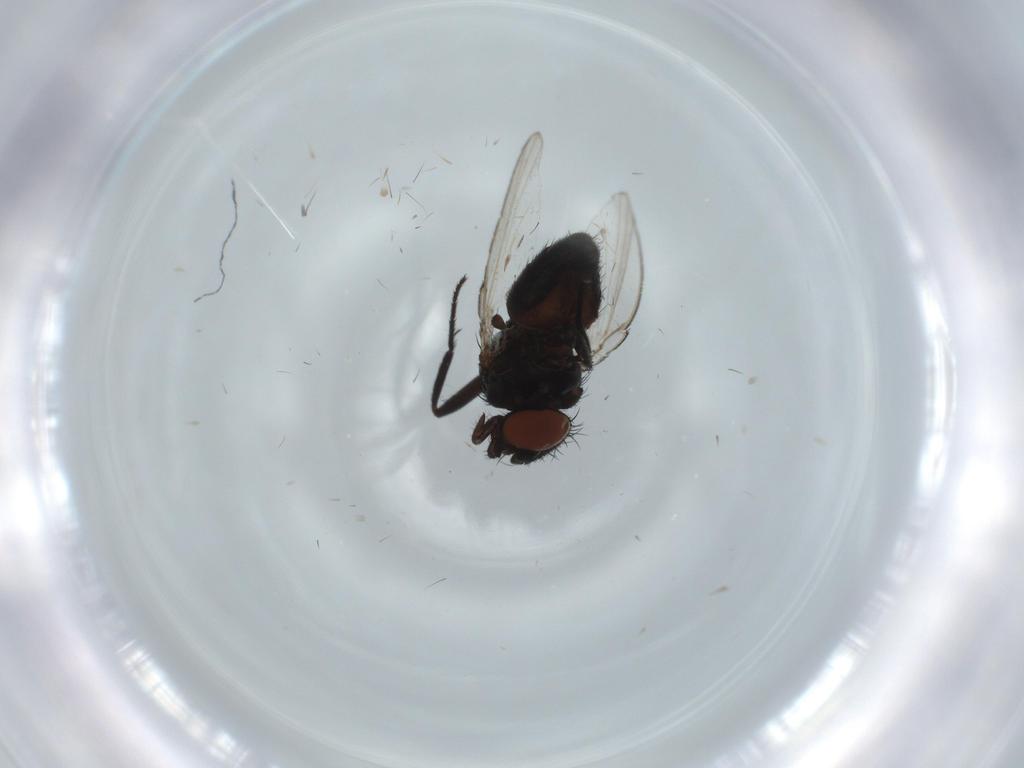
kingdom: Animalia
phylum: Arthropoda
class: Insecta
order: Diptera
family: Milichiidae
